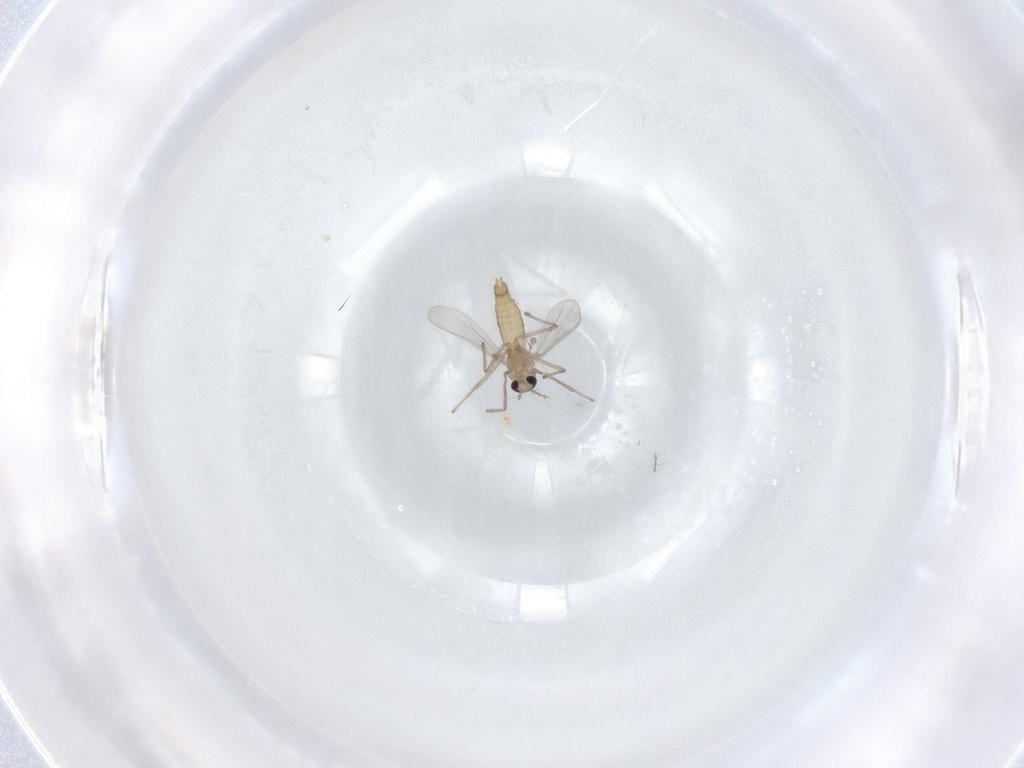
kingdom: Animalia
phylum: Arthropoda
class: Insecta
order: Diptera
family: Chironomidae
